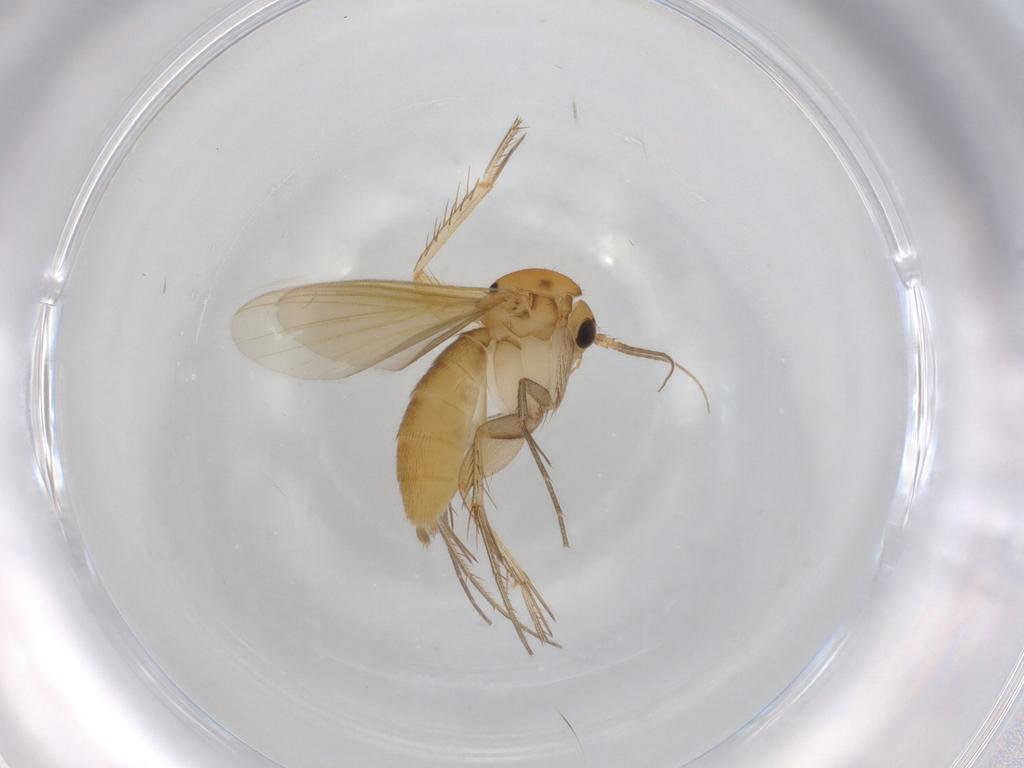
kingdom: Animalia
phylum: Arthropoda
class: Insecta
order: Diptera
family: Mycetophilidae
